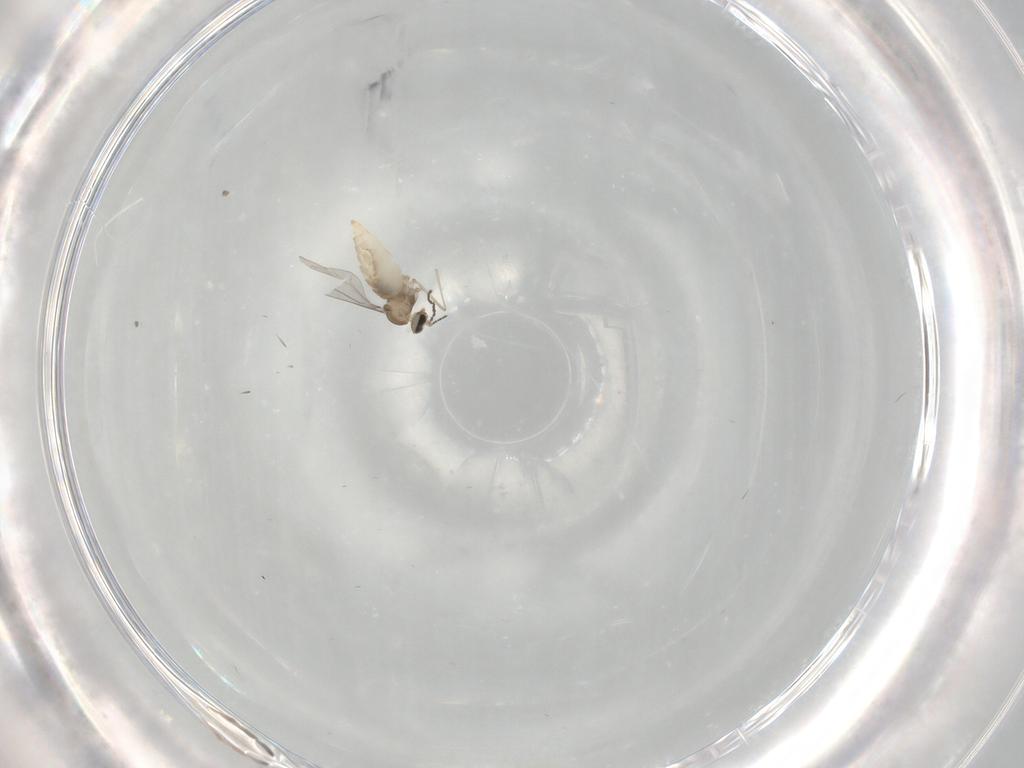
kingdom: Animalia
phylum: Arthropoda
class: Insecta
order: Diptera
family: Cecidomyiidae
